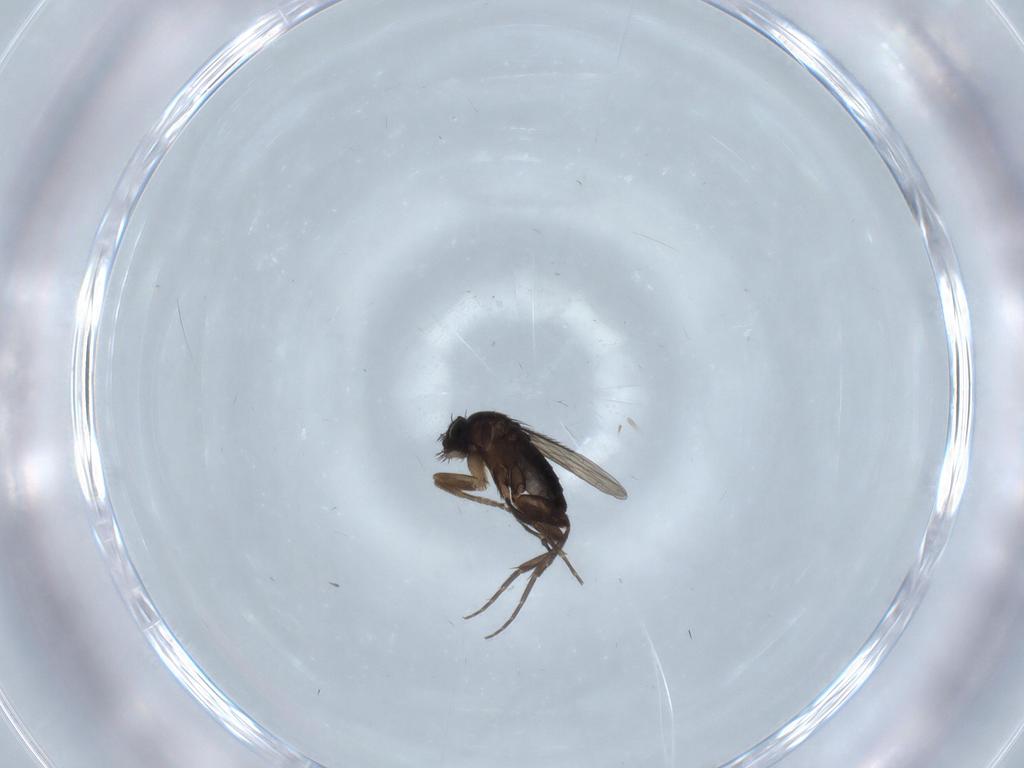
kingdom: Animalia
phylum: Arthropoda
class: Insecta
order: Diptera
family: Phoridae
